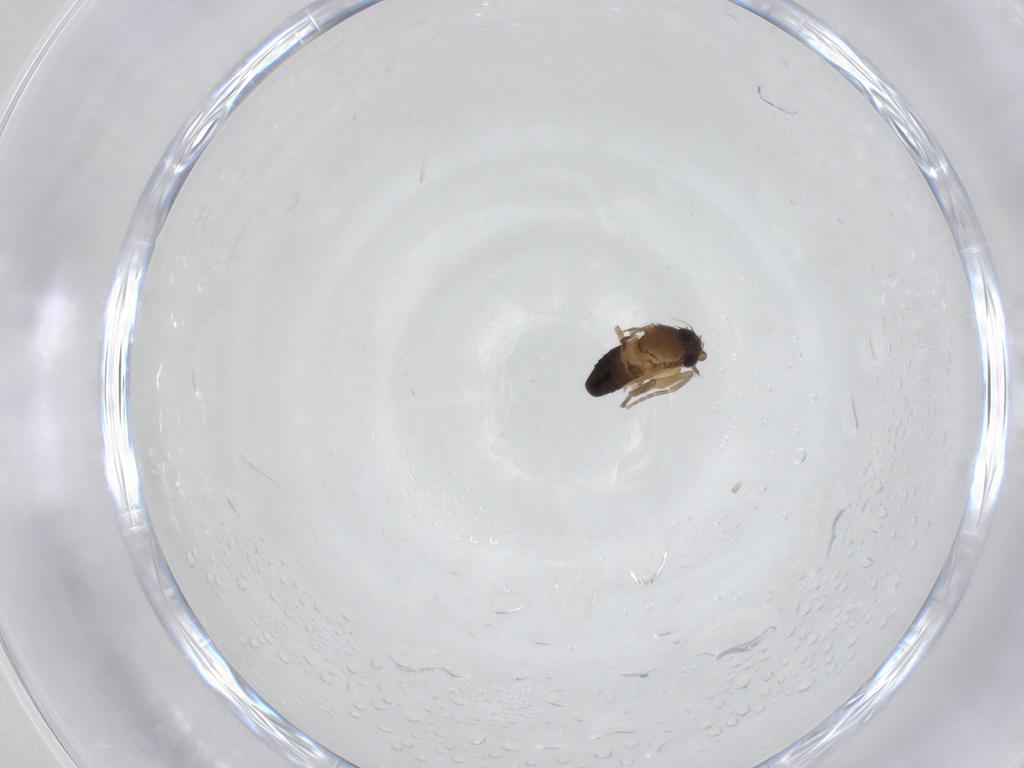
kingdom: Animalia
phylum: Arthropoda
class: Insecta
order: Diptera
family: Phoridae
